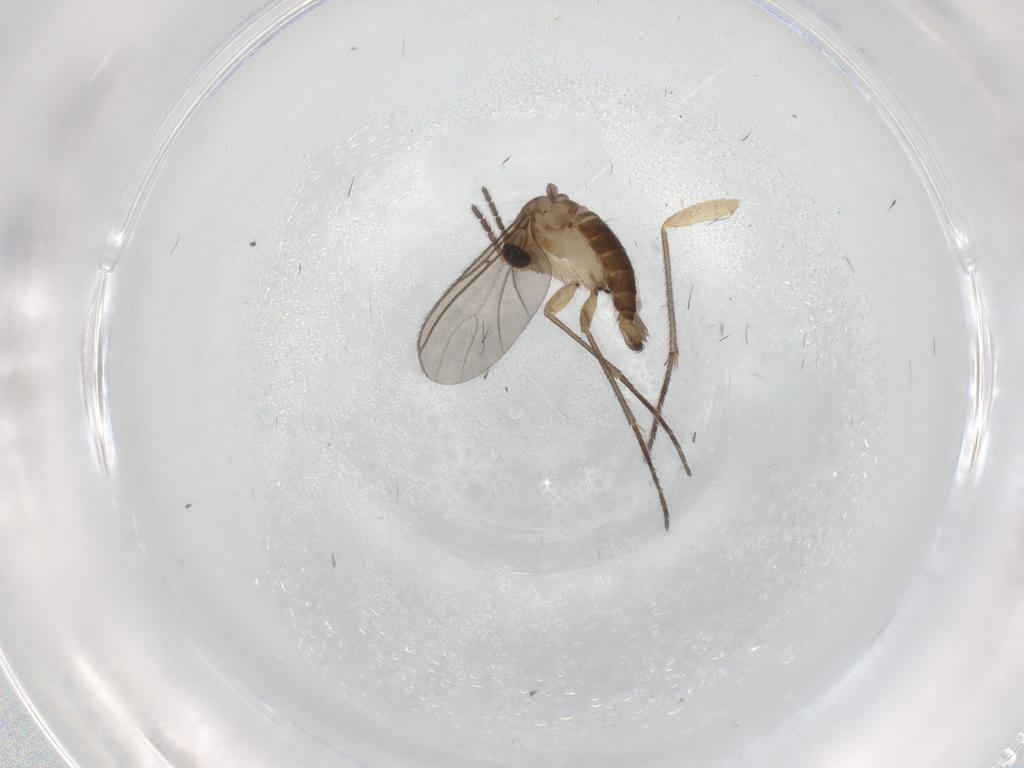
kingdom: Animalia
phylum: Arthropoda
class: Insecta
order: Diptera
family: Sciaridae
